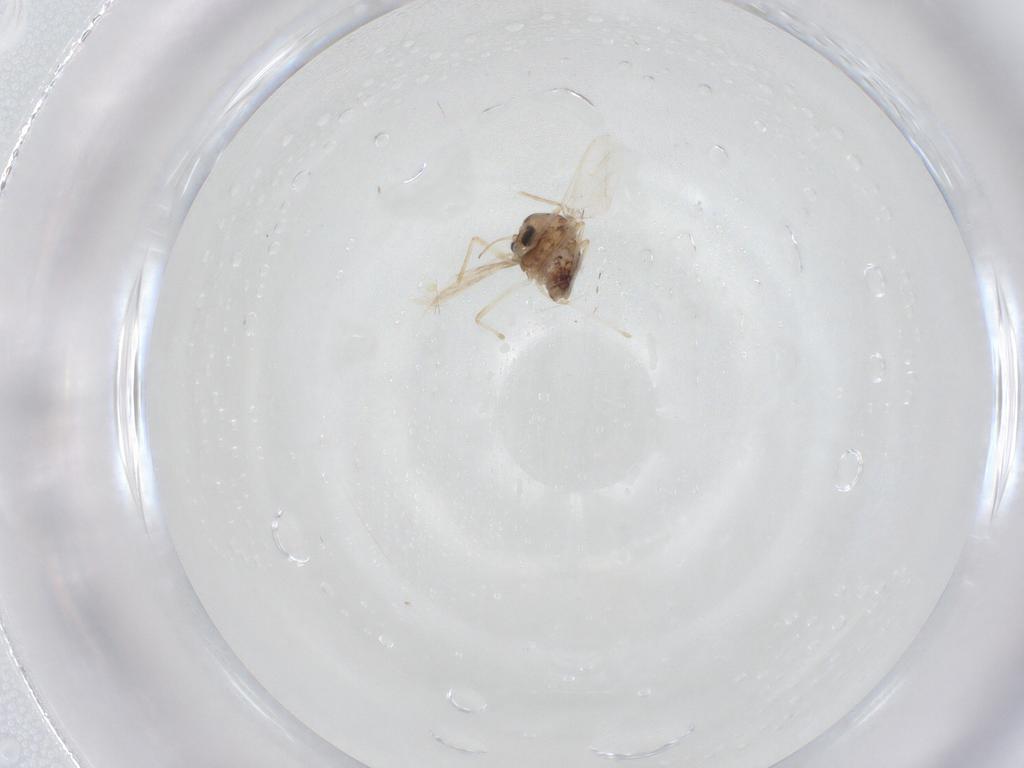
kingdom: Animalia
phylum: Arthropoda
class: Insecta
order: Diptera
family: Chironomidae
